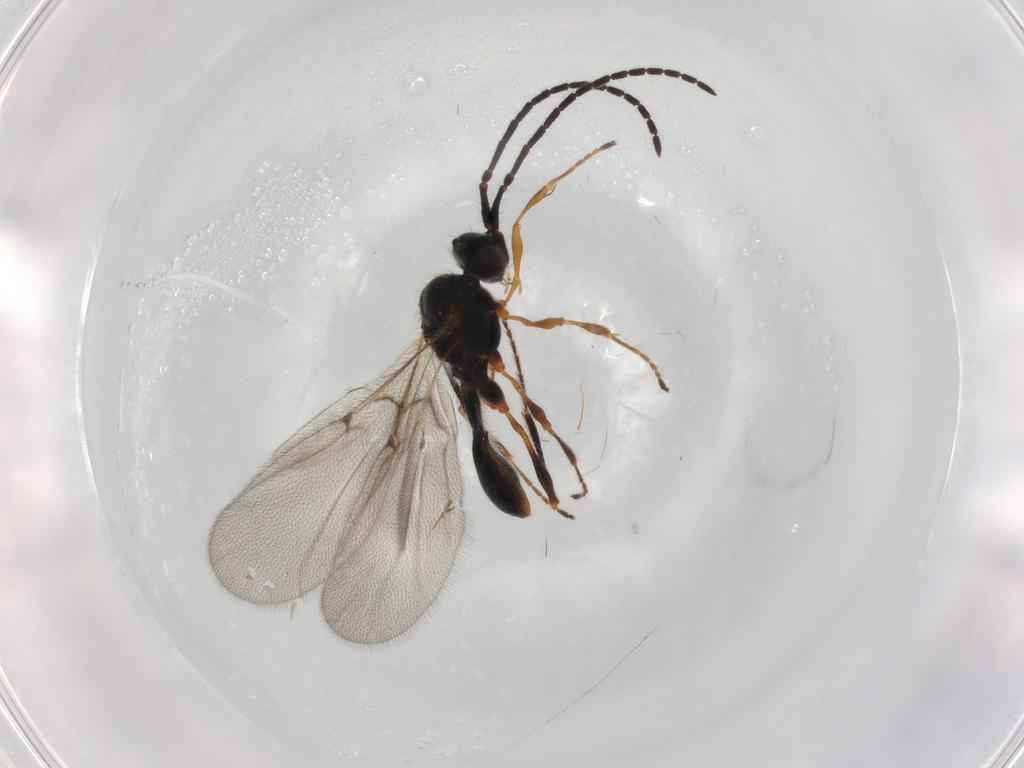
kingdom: Animalia
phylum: Arthropoda
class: Insecta
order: Hymenoptera
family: Diapriidae
